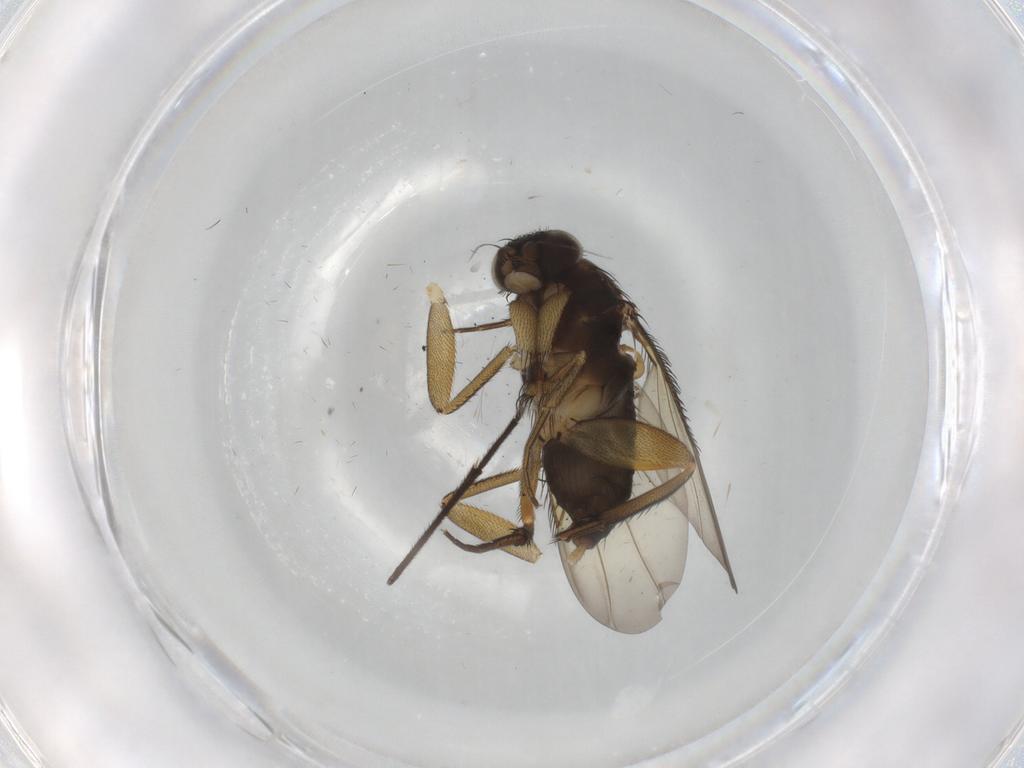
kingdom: Animalia
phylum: Arthropoda
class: Insecta
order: Diptera
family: Phoridae
